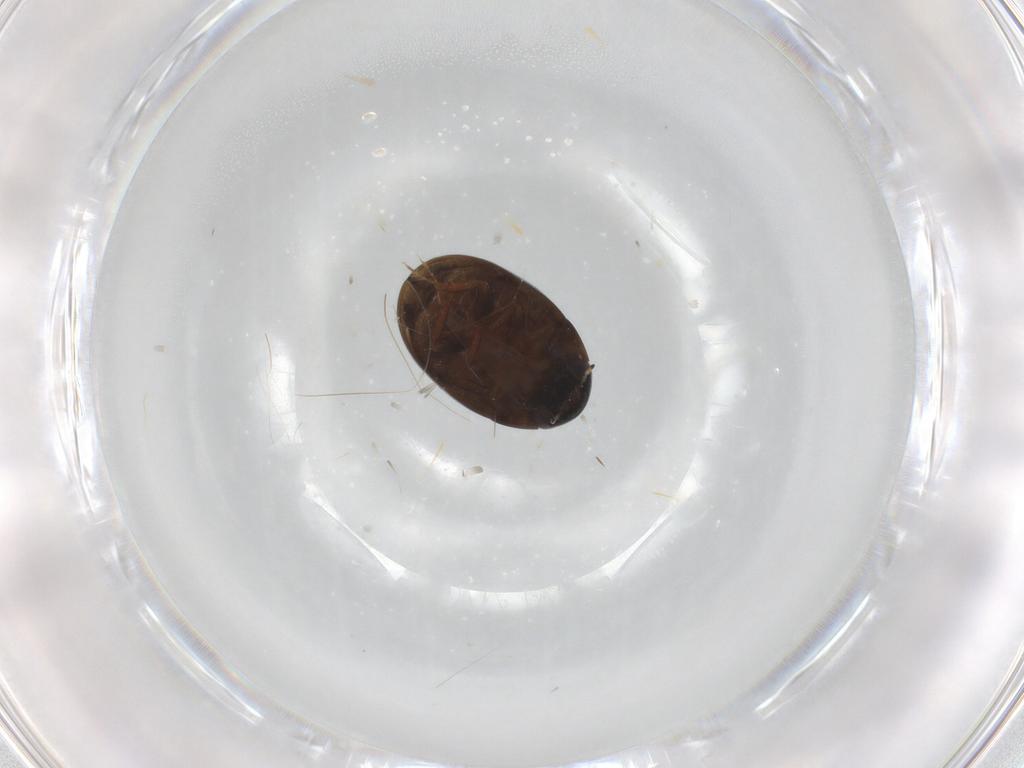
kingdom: Animalia
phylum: Arthropoda
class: Insecta
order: Coleoptera
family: Hydrophilidae
